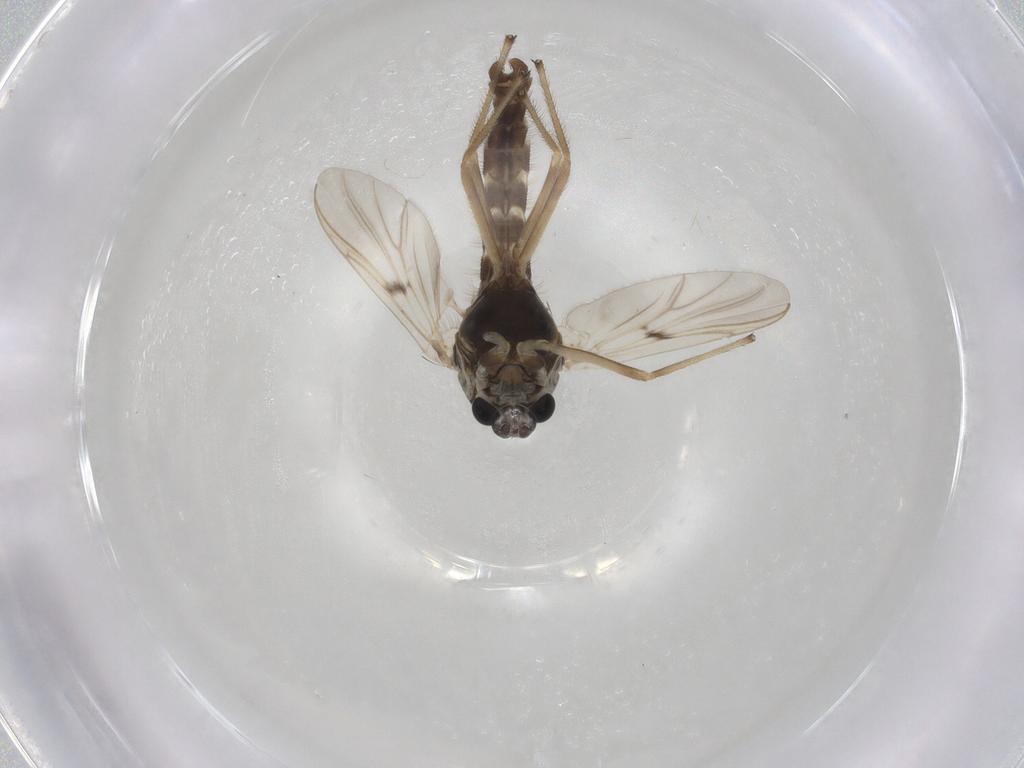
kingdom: Animalia
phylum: Arthropoda
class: Insecta
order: Diptera
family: Chironomidae
